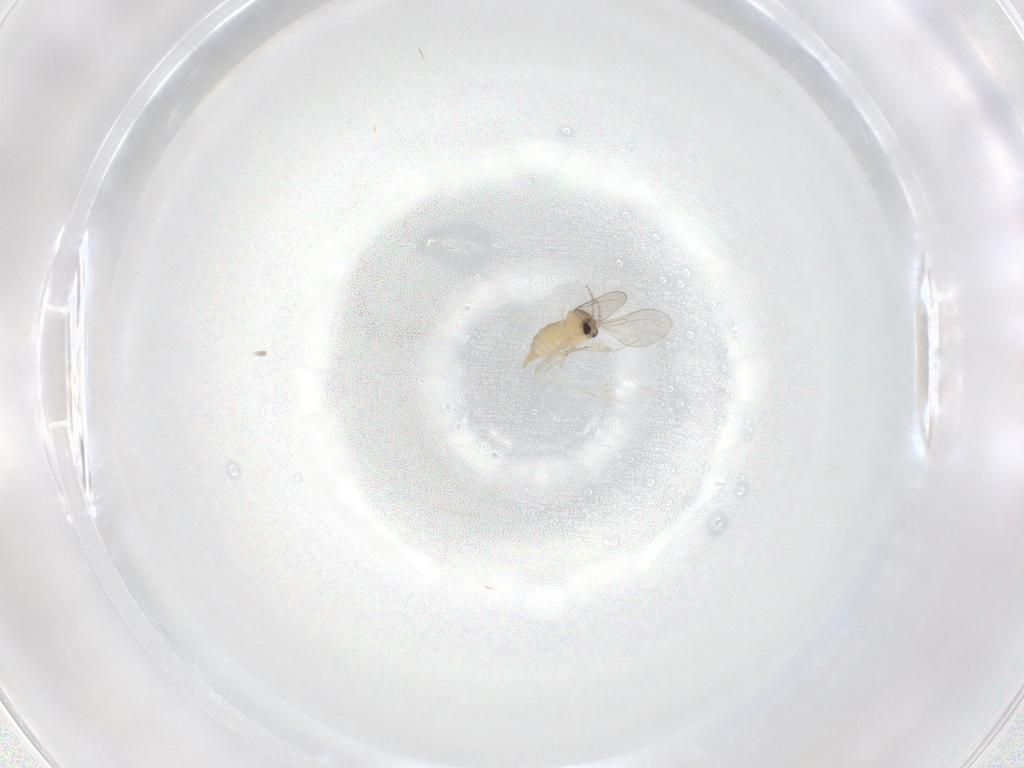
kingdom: Animalia
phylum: Arthropoda
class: Insecta
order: Diptera
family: Cecidomyiidae
